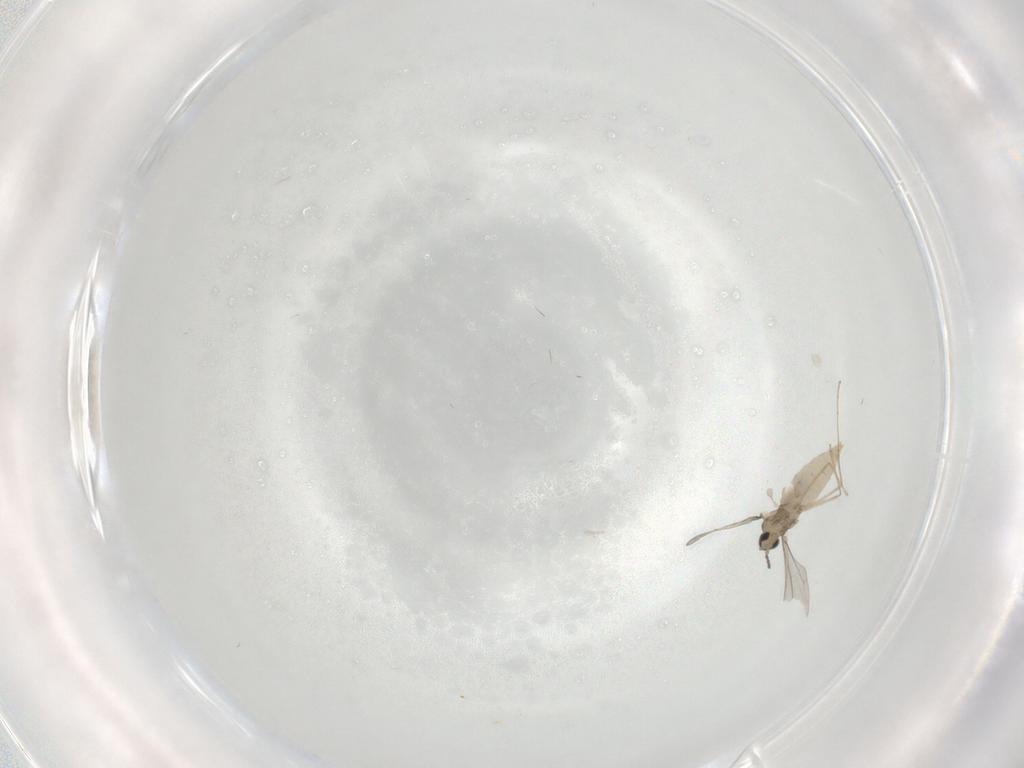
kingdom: Animalia
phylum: Arthropoda
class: Insecta
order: Diptera
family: Cecidomyiidae
